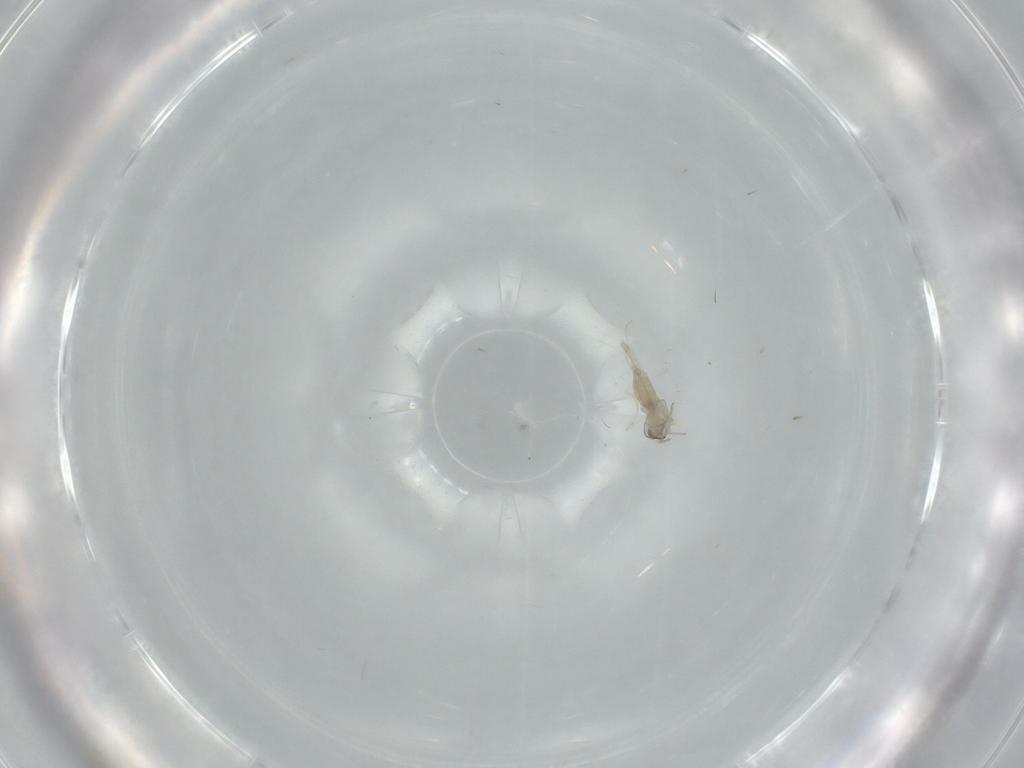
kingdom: Animalia
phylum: Arthropoda
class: Insecta
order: Diptera
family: Cecidomyiidae
